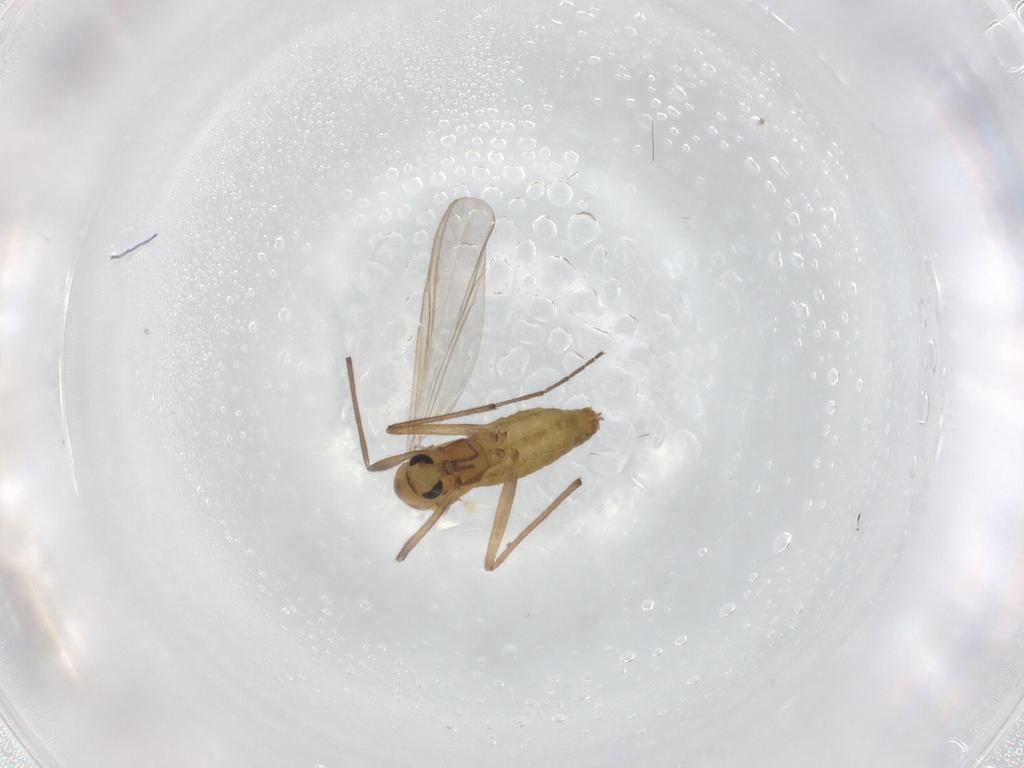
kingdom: Animalia
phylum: Arthropoda
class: Insecta
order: Diptera
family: Chironomidae
